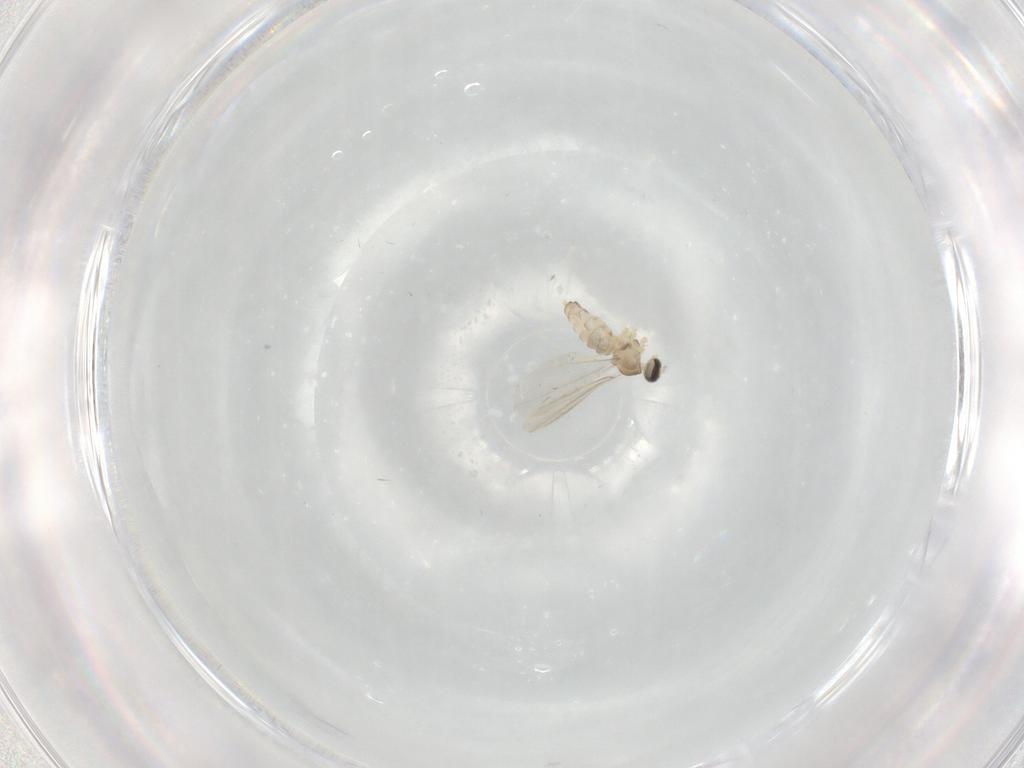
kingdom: Animalia
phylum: Arthropoda
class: Insecta
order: Diptera
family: Cecidomyiidae
